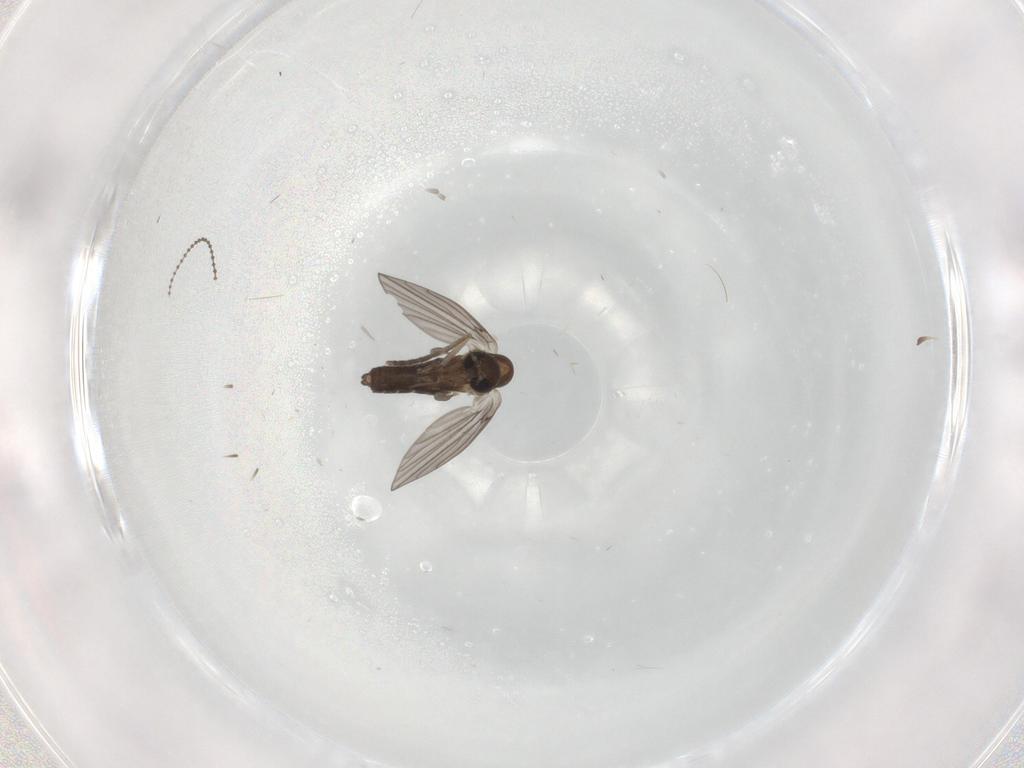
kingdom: Animalia
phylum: Arthropoda
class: Insecta
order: Diptera
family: Cecidomyiidae
